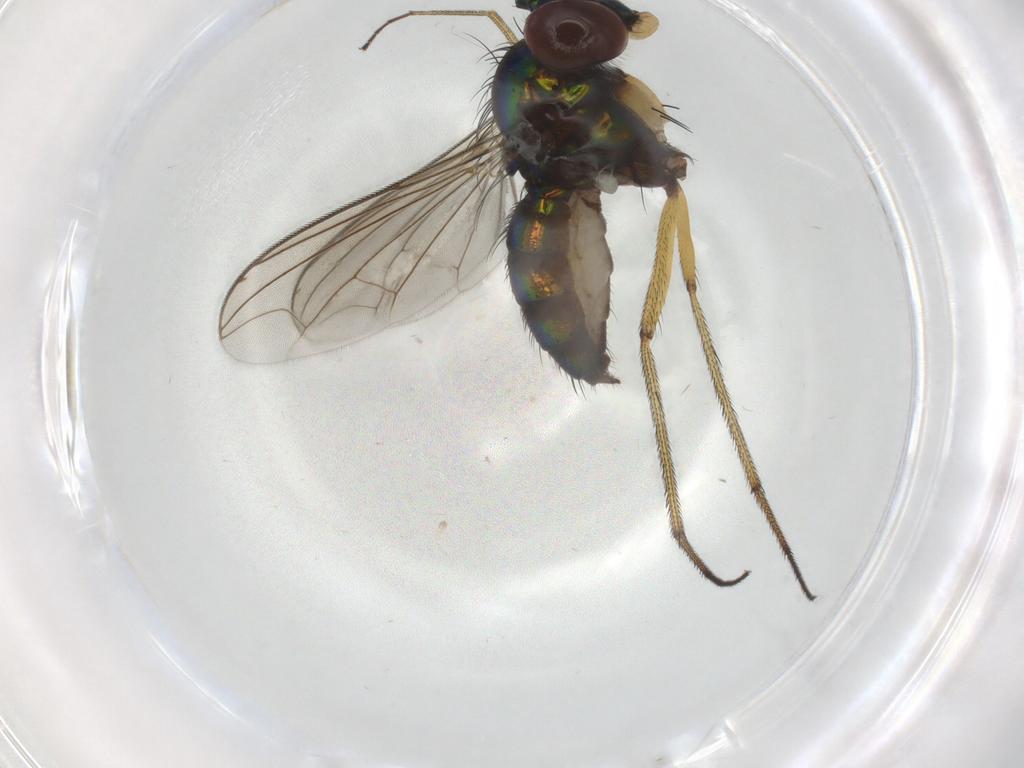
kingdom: Animalia
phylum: Arthropoda
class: Insecta
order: Diptera
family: Dolichopodidae
